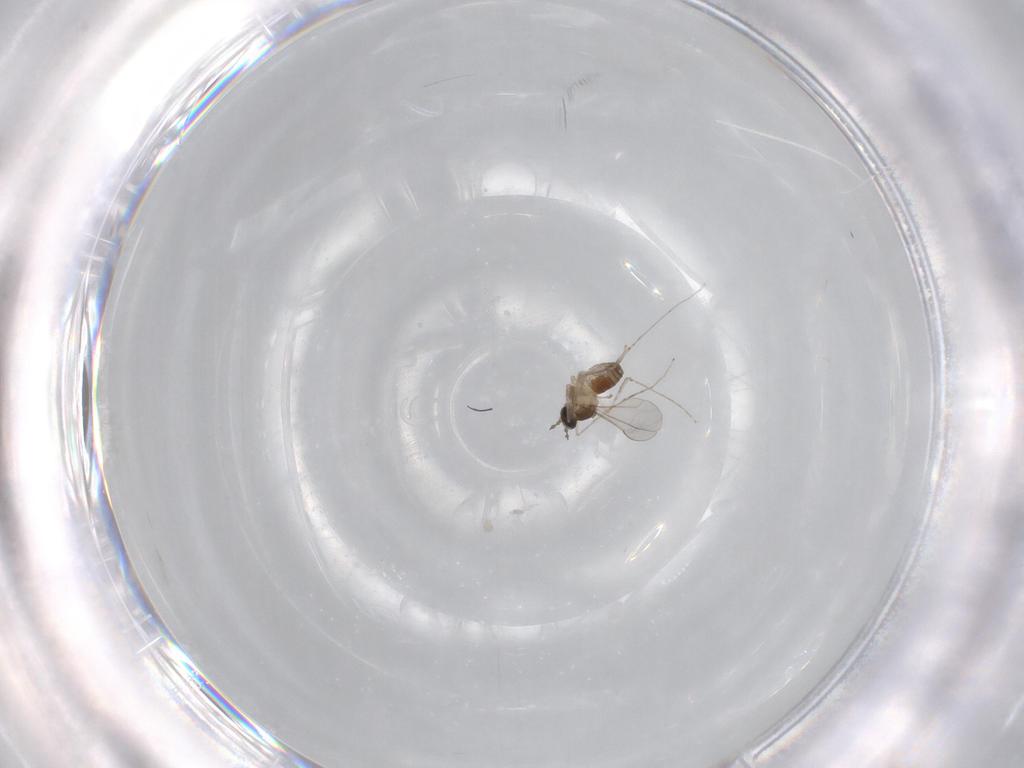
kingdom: Animalia
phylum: Arthropoda
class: Insecta
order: Diptera
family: Cecidomyiidae
